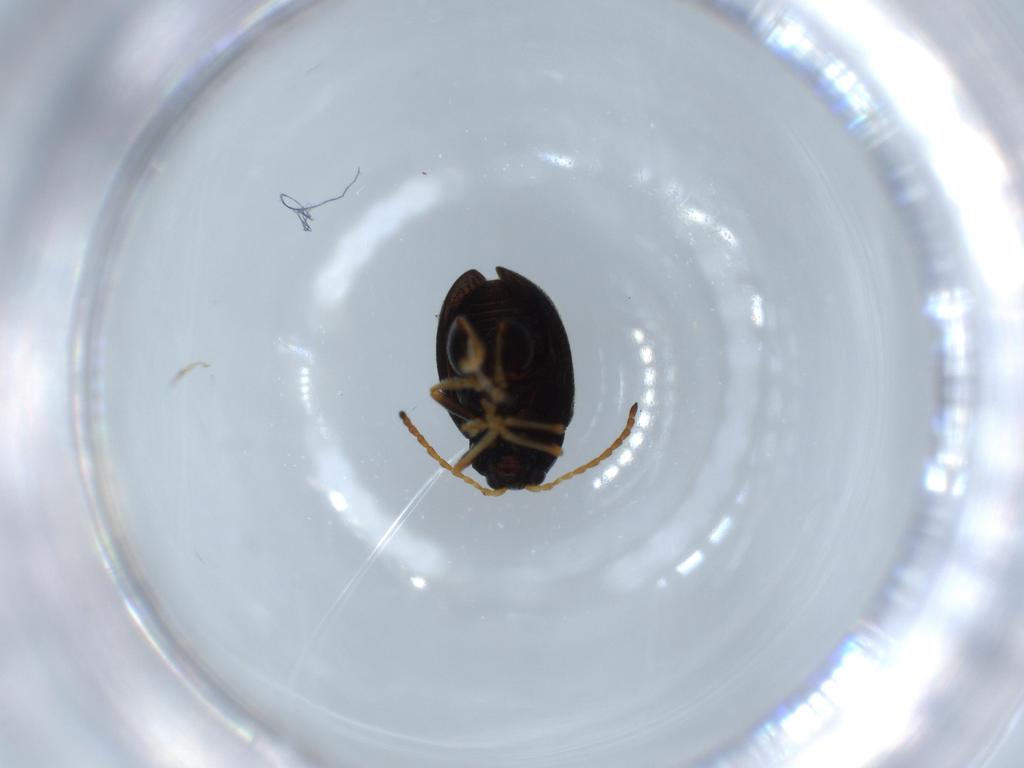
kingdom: Animalia
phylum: Arthropoda
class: Insecta
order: Coleoptera
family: Chrysomelidae
